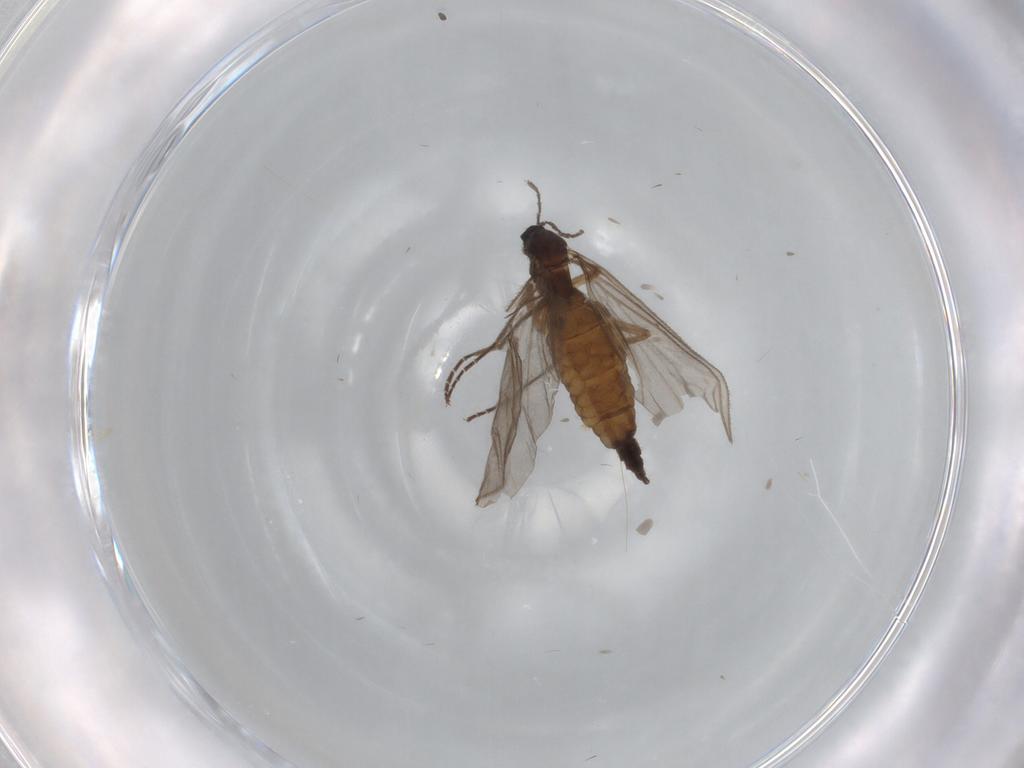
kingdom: Animalia
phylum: Arthropoda
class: Insecta
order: Diptera
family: Sciaridae
